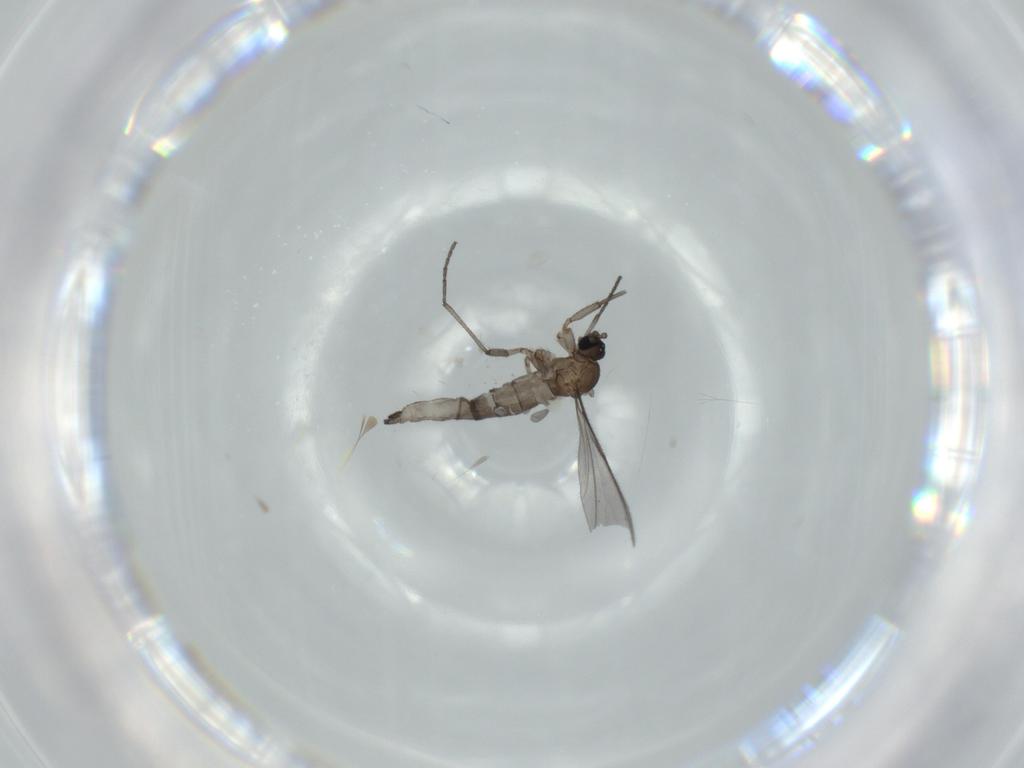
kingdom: Animalia
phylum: Arthropoda
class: Insecta
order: Diptera
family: Sciaridae
